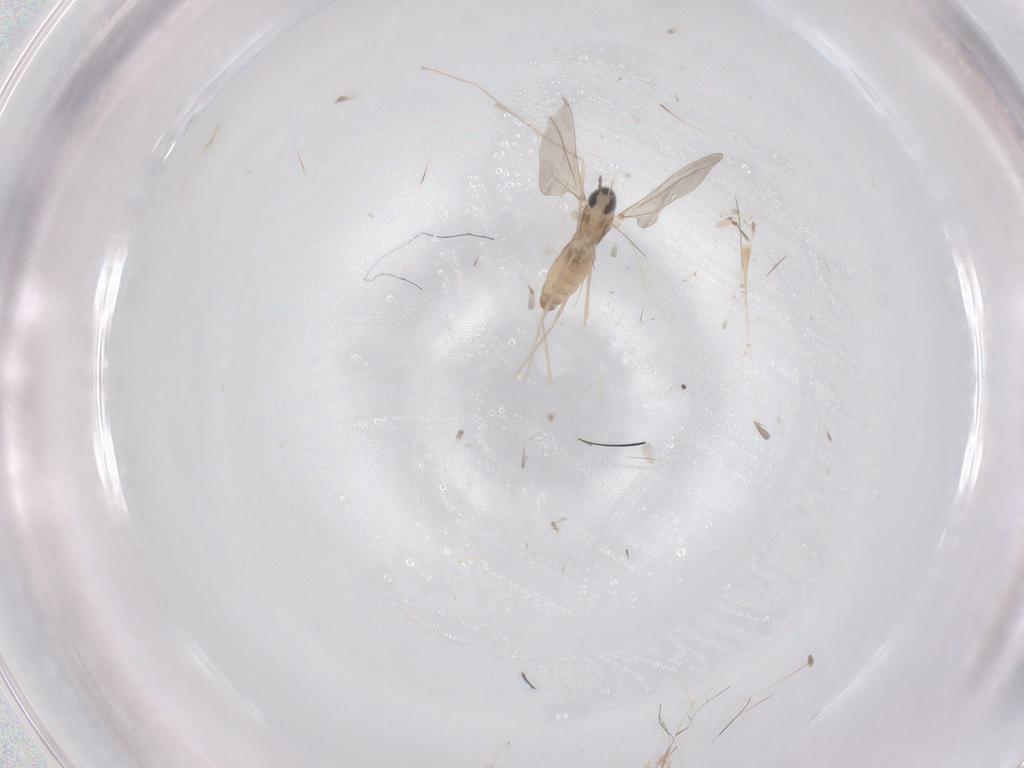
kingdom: Animalia
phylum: Arthropoda
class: Insecta
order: Diptera
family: Cecidomyiidae
